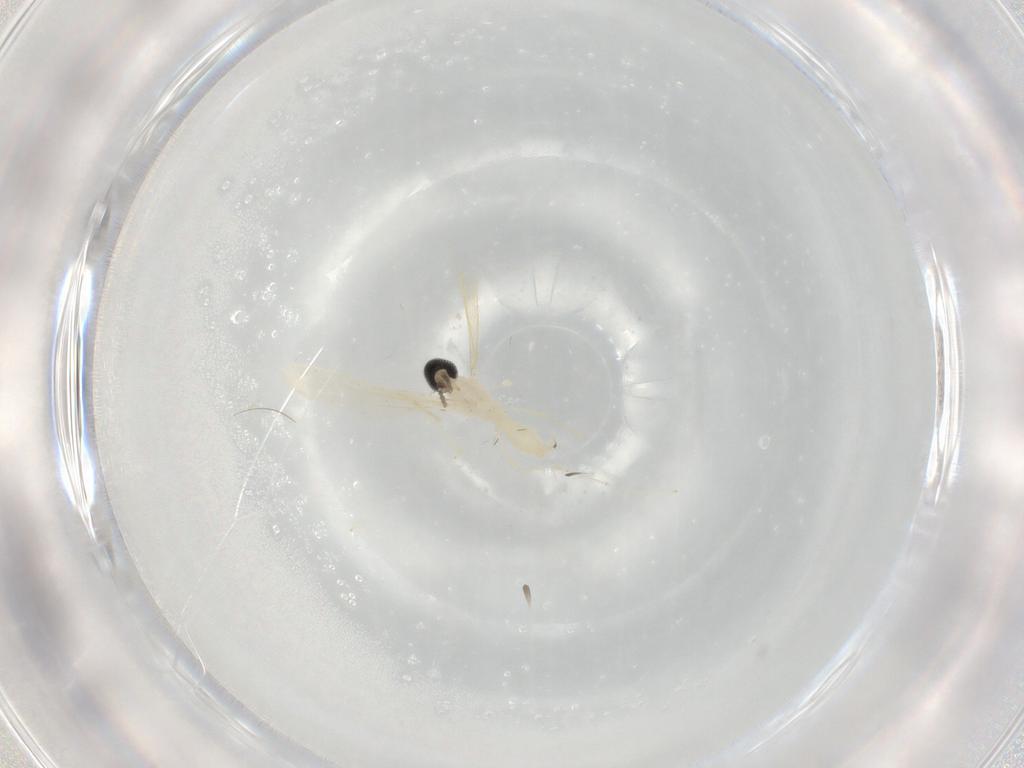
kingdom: Animalia
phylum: Arthropoda
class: Insecta
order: Diptera
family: Cecidomyiidae
